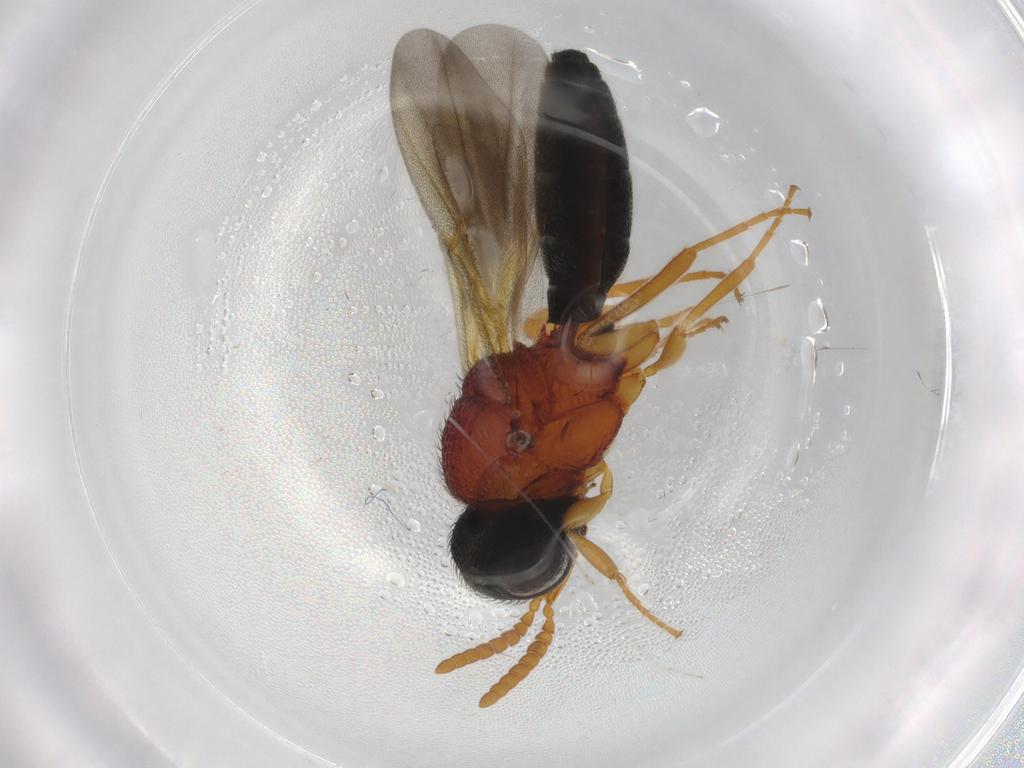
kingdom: Animalia
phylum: Arthropoda
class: Insecta
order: Hymenoptera
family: Scelionidae
